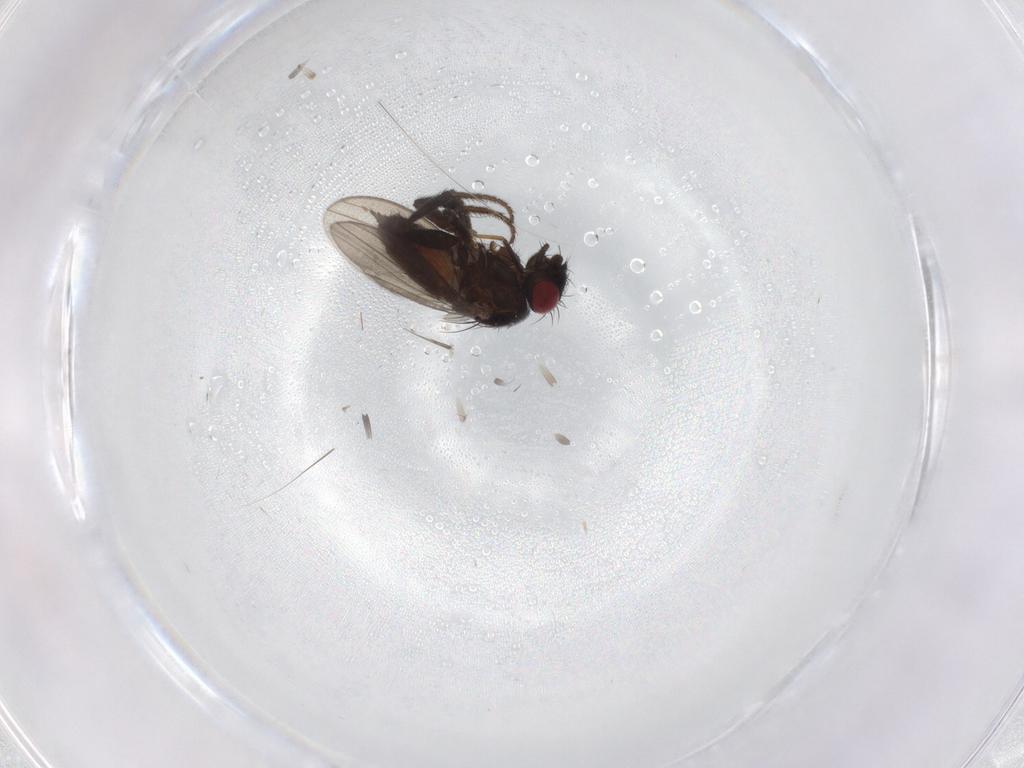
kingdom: Animalia
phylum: Arthropoda
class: Insecta
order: Diptera
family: Milichiidae
